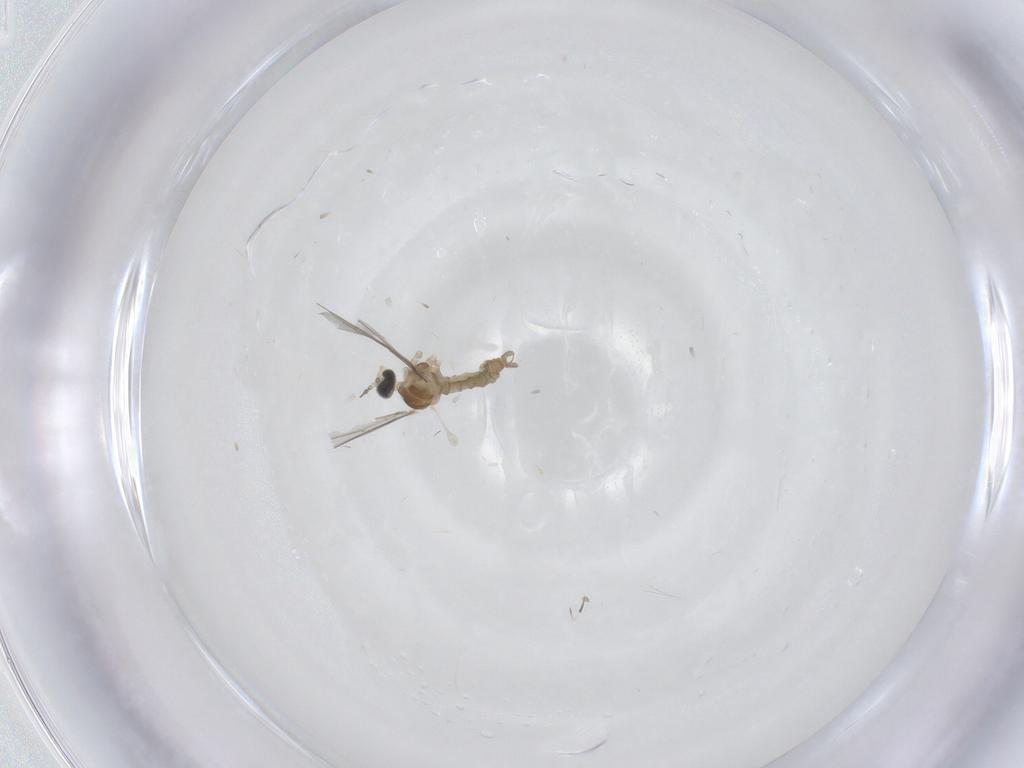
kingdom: Animalia
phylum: Arthropoda
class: Insecta
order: Diptera
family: Cecidomyiidae
